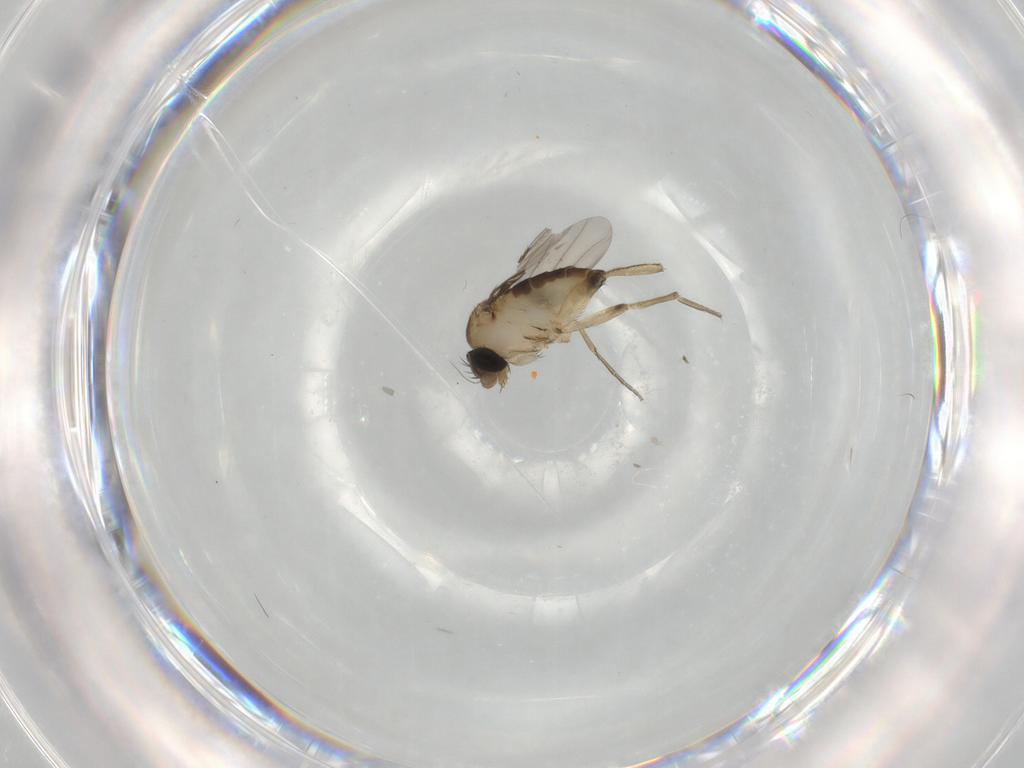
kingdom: Animalia
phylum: Arthropoda
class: Insecta
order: Diptera
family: Phoridae
